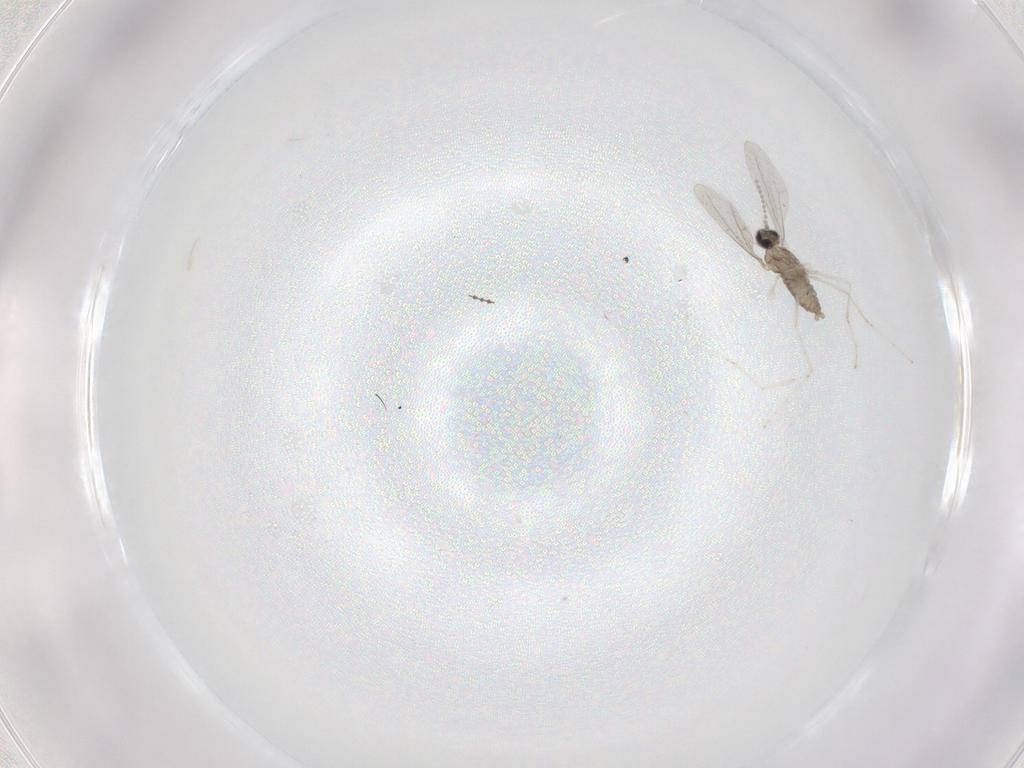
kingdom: Animalia
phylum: Arthropoda
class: Insecta
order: Diptera
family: Cecidomyiidae
